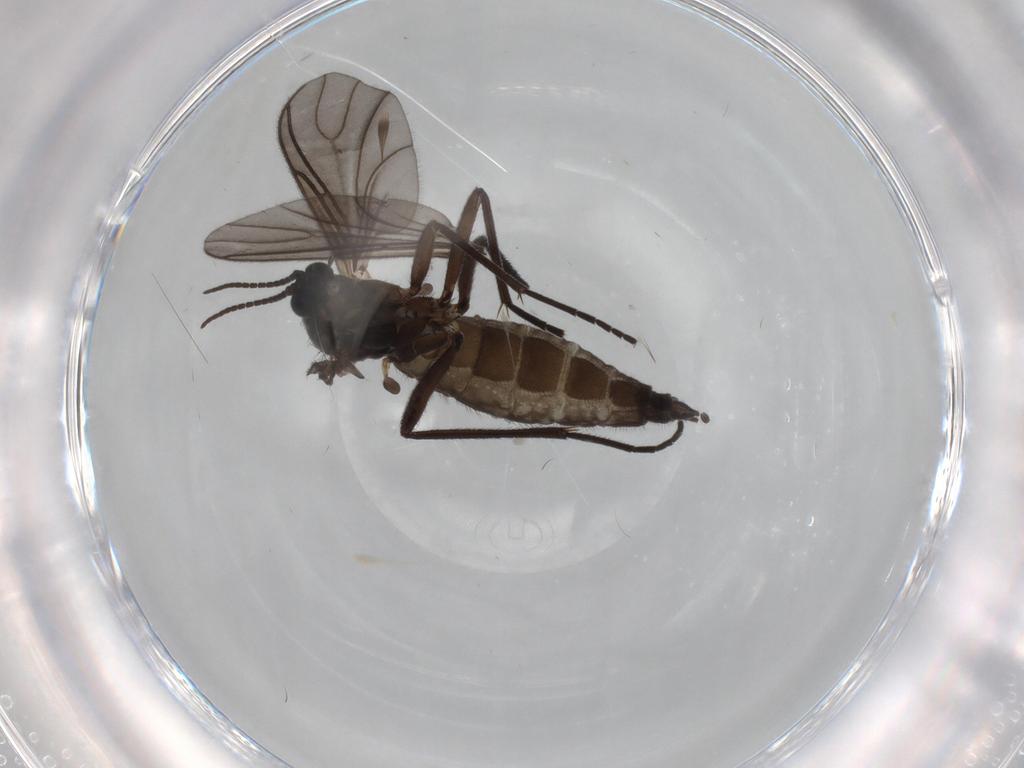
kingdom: Animalia
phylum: Arthropoda
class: Insecta
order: Diptera
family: Sciaridae
